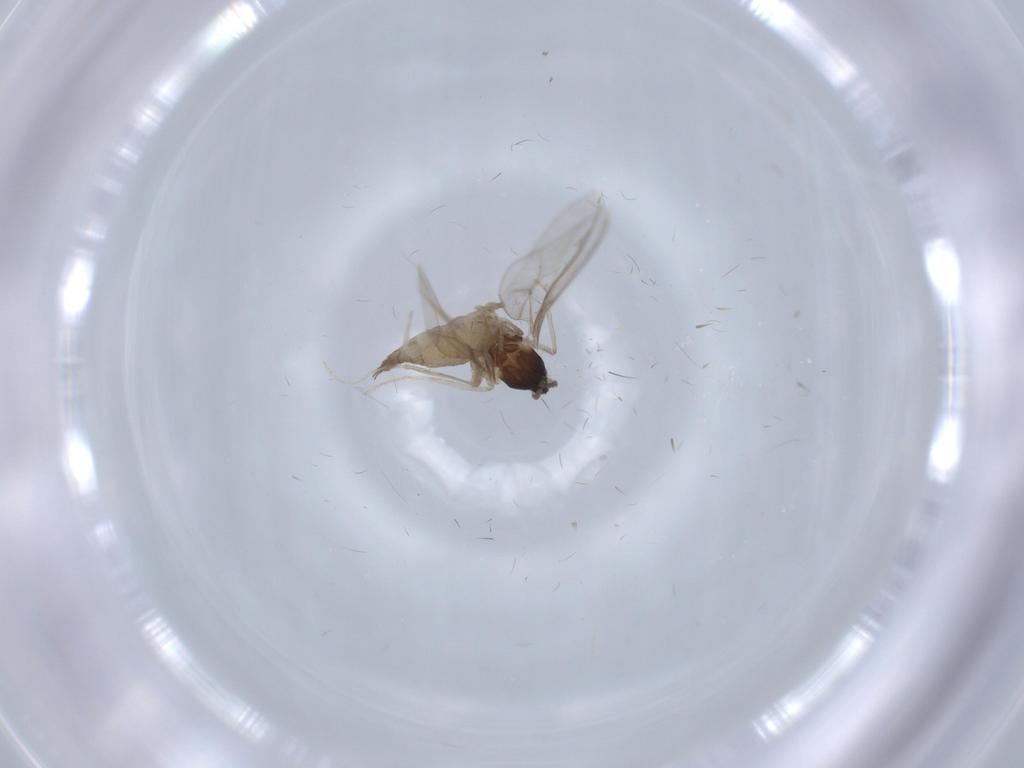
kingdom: Animalia
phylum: Arthropoda
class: Insecta
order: Diptera
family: Cecidomyiidae
